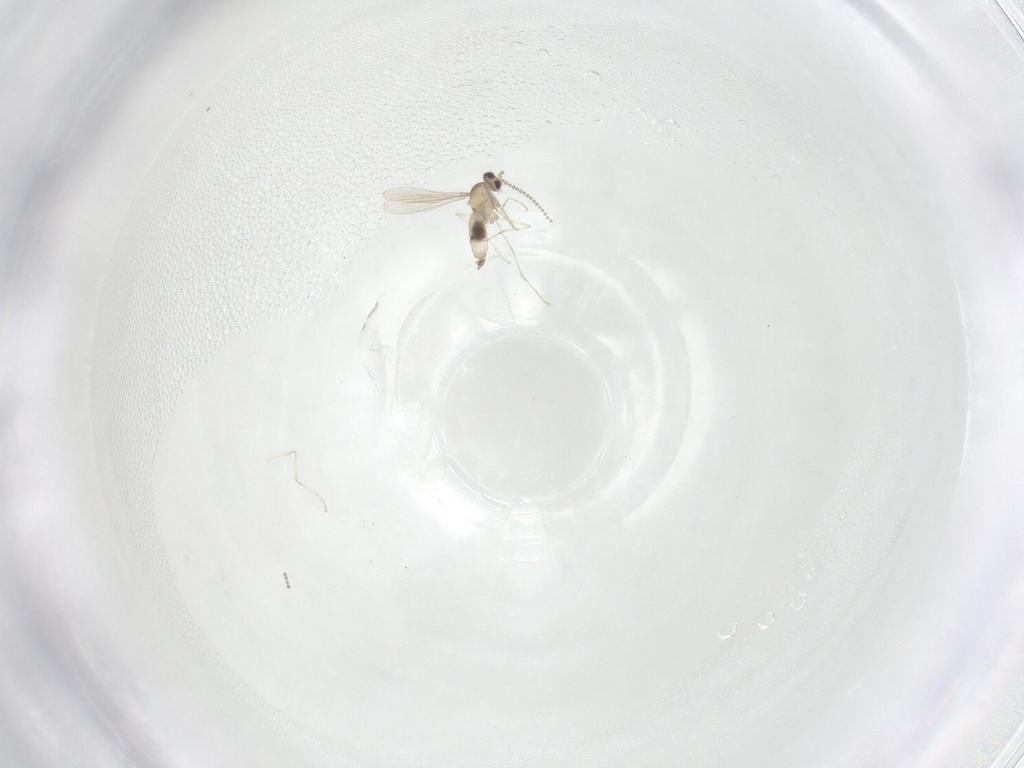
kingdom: Animalia
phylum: Arthropoda
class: Insecta
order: Diptera
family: Cecidomyiidae
